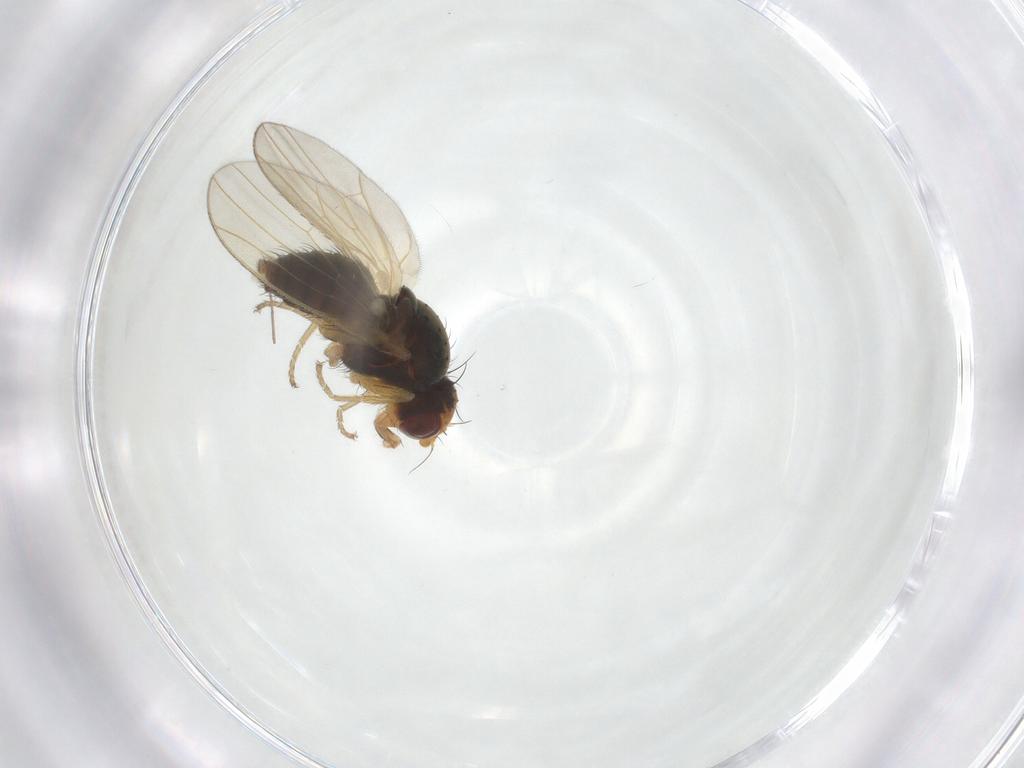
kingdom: Animalia
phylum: Arthropoda
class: Insecta
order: Diptera
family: Heleomyzidae
